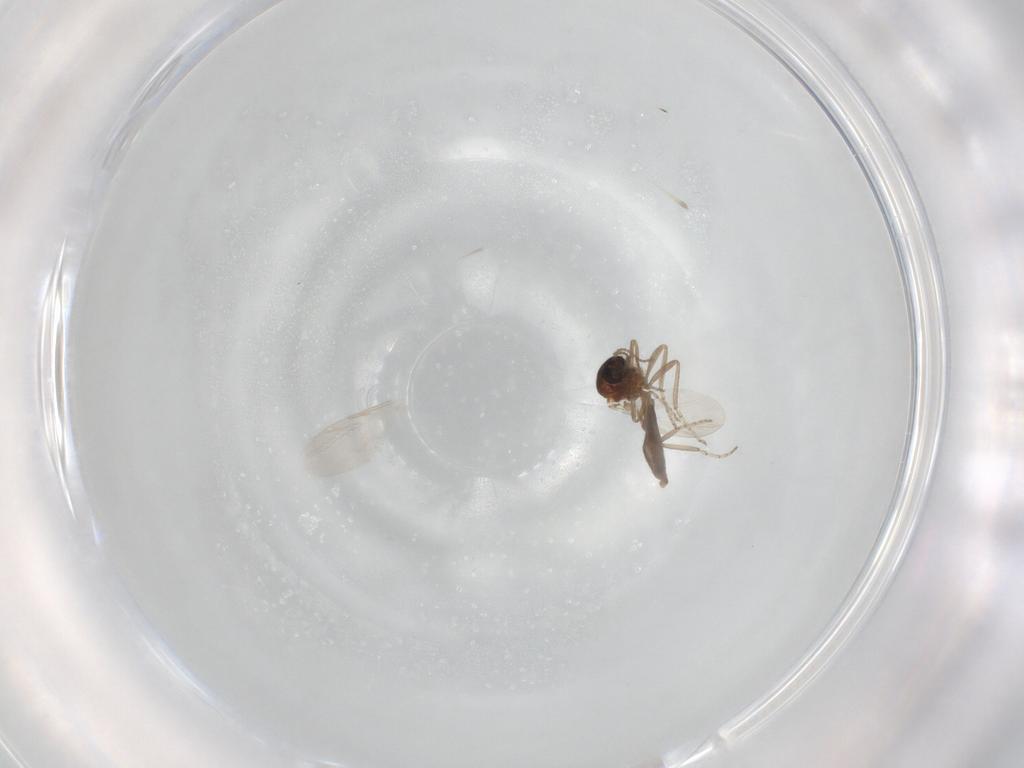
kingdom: Animalia
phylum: Arthropoda
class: Insecta
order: Diptera
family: Ceratopogonidae
